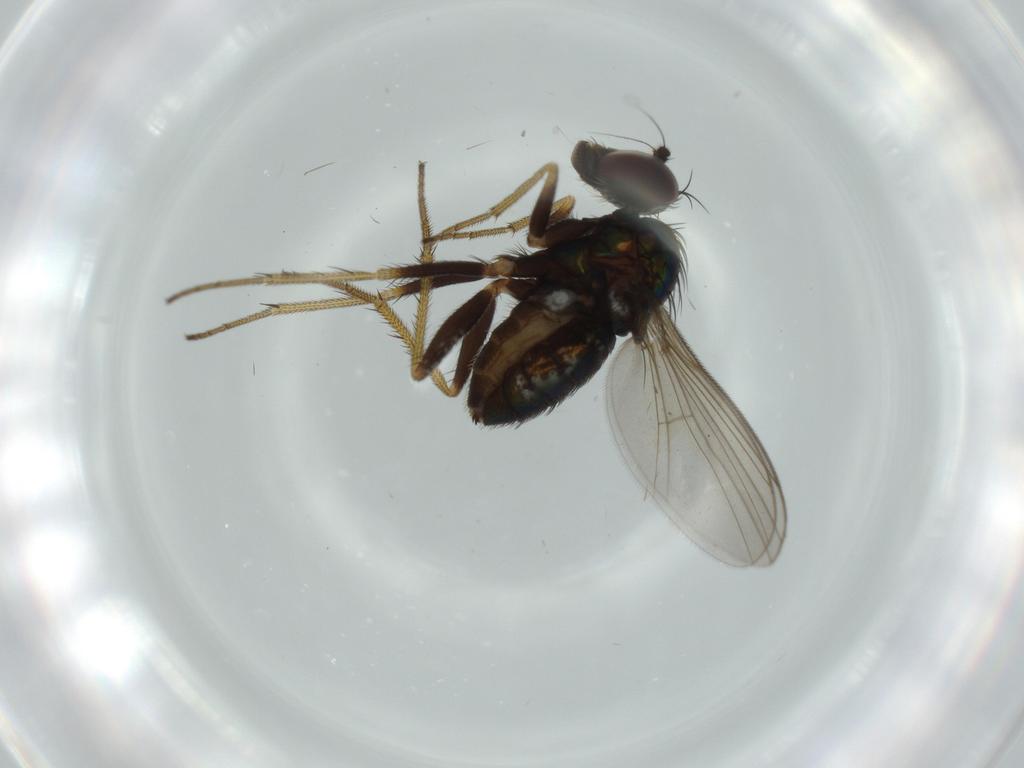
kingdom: Animalia
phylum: Arthropoda
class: Insecta
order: Diptera
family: Dolichopodidae
